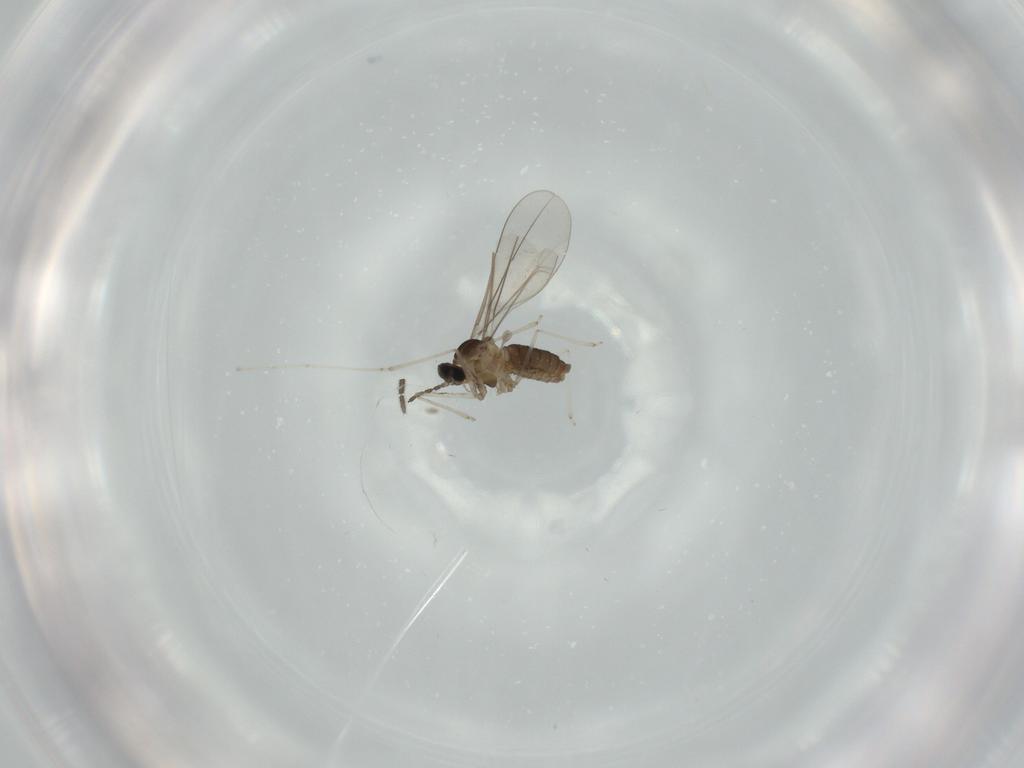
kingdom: Animalia
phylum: Arthropoda
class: Insecta
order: Diptera
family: Cecidomyiidae
